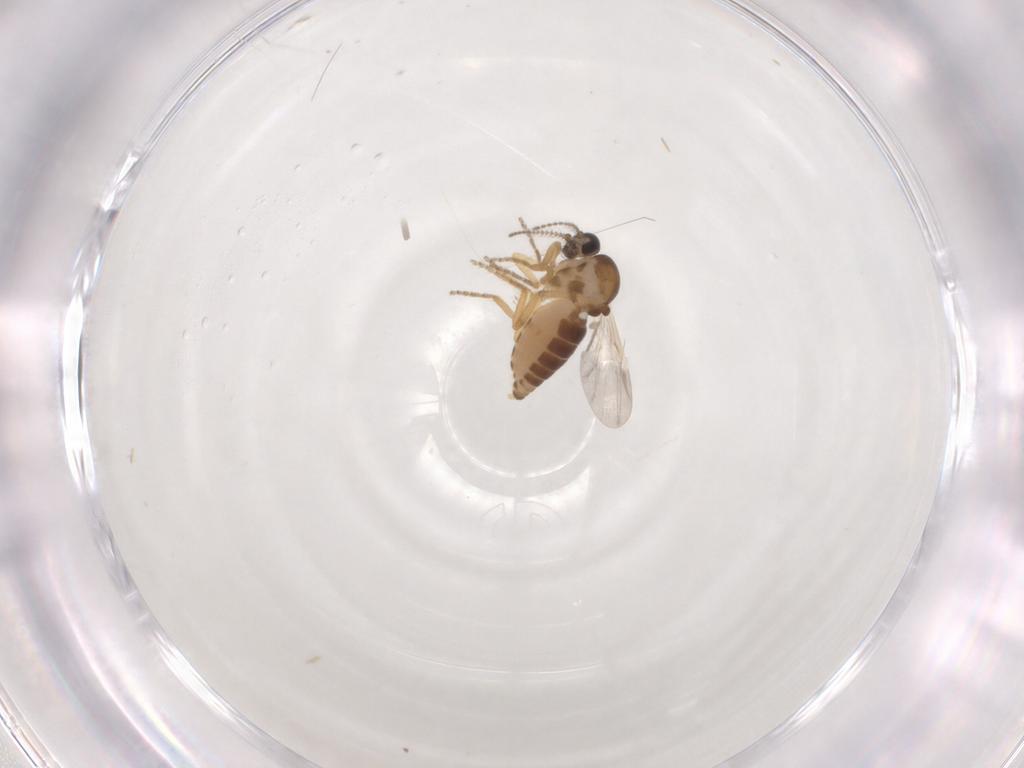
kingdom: Animalia
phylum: Arthropoda
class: Insecta
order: Diptera
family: Ceratopogonidae
